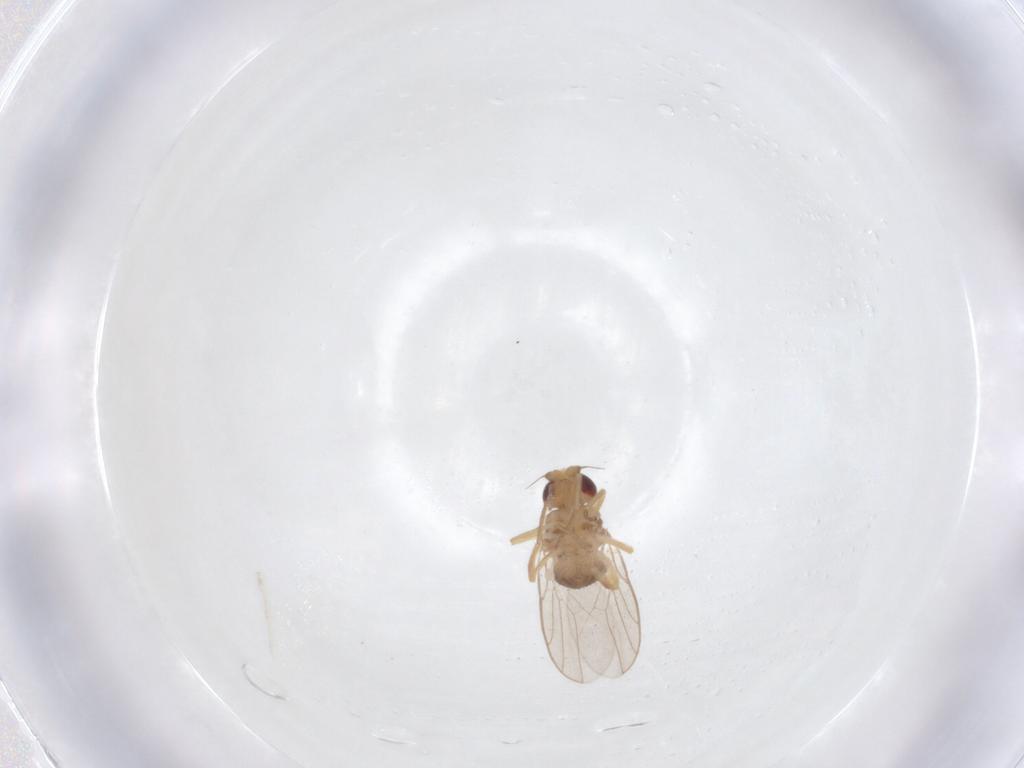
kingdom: Animalia
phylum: Arthropoda
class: Insecta
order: Diptera
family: Chloropidae
